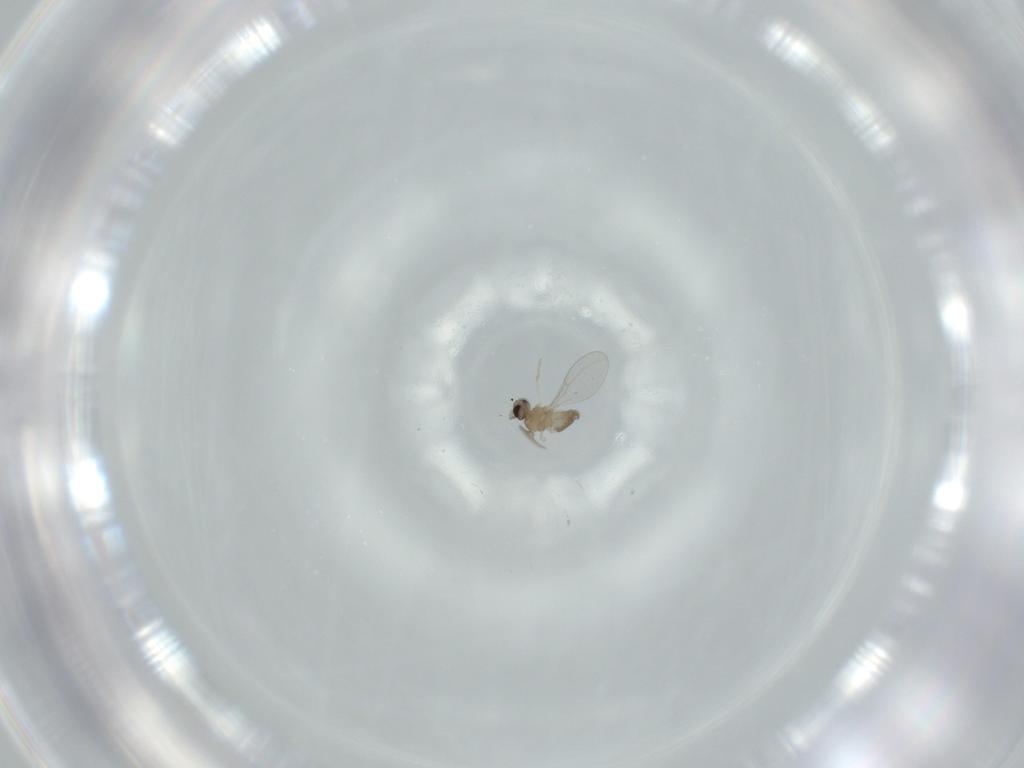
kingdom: Animalia
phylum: Arthropoda
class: Insecta
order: Diptera
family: Cecidomyiidae
